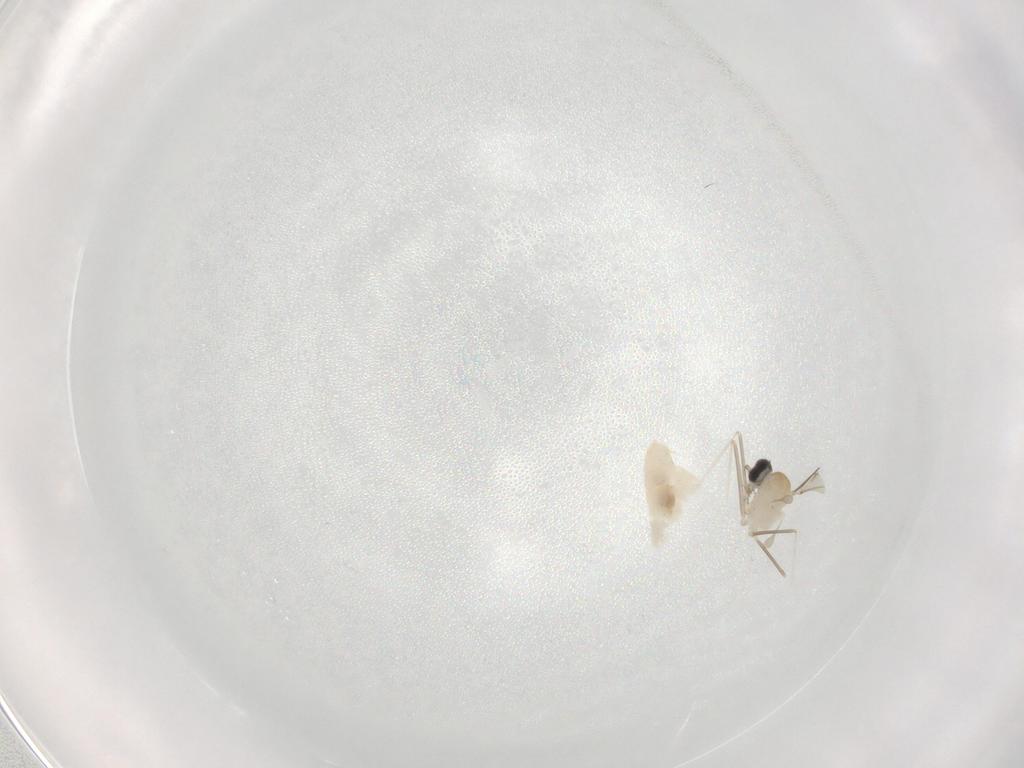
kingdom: Animalia
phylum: Arthropoda
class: Insecta
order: Diptera
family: Cecidomyiidae
